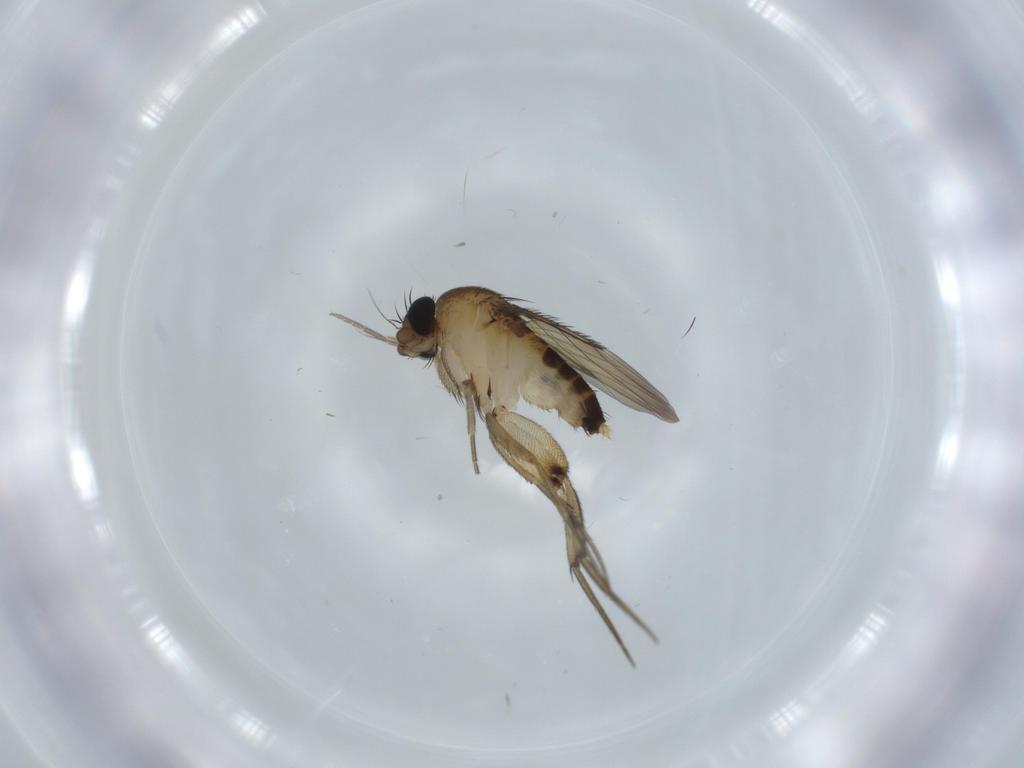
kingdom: Animalia
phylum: Arthropoda
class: Insecta
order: Diptera
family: Phoridae
